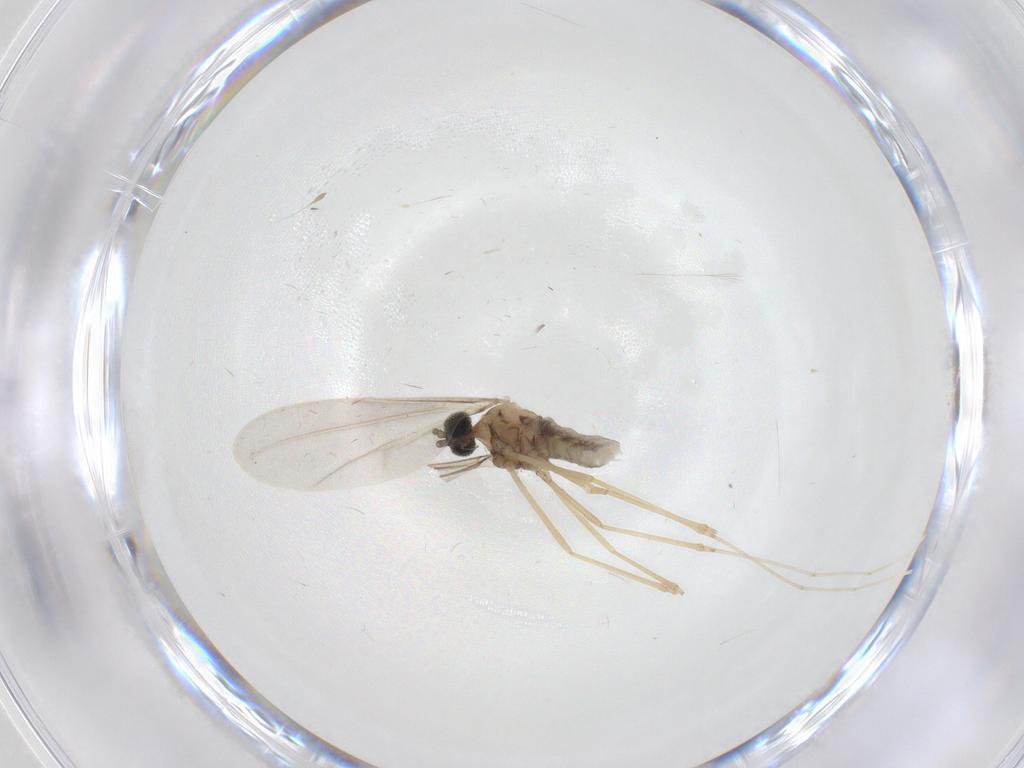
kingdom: Animalia
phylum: Arthropoda
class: Insecta
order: Diptera
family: Cecidomyiidae
